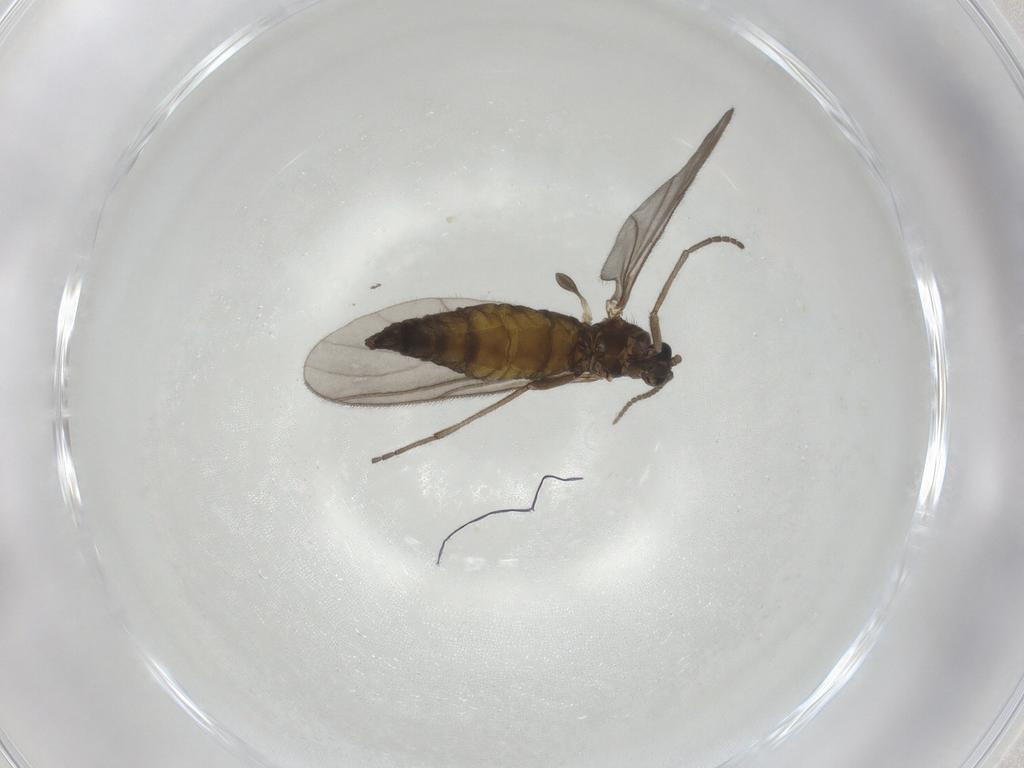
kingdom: Animalia
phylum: Arthropoda
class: Insecta
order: Diptera
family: Sciaridae
